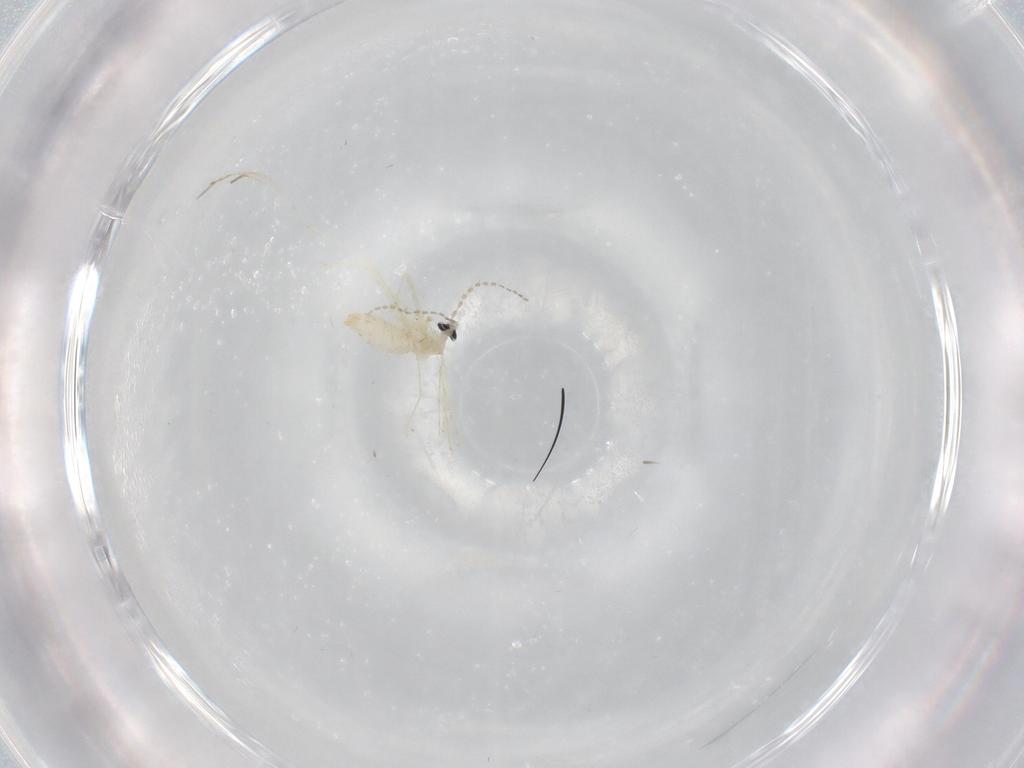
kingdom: Animalia
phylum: Arthropoda
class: Insecta
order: Diptera
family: Cecidomyiidae
